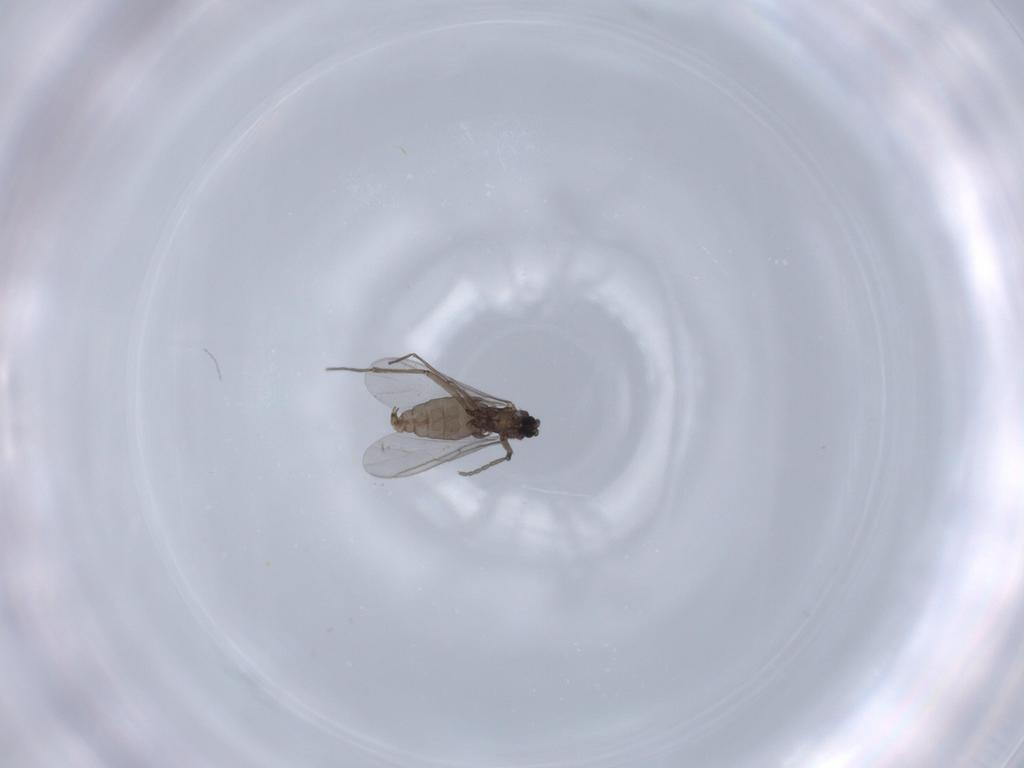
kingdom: Animalia
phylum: Arthropoda
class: Insecta
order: Diptera
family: Sciaridae
